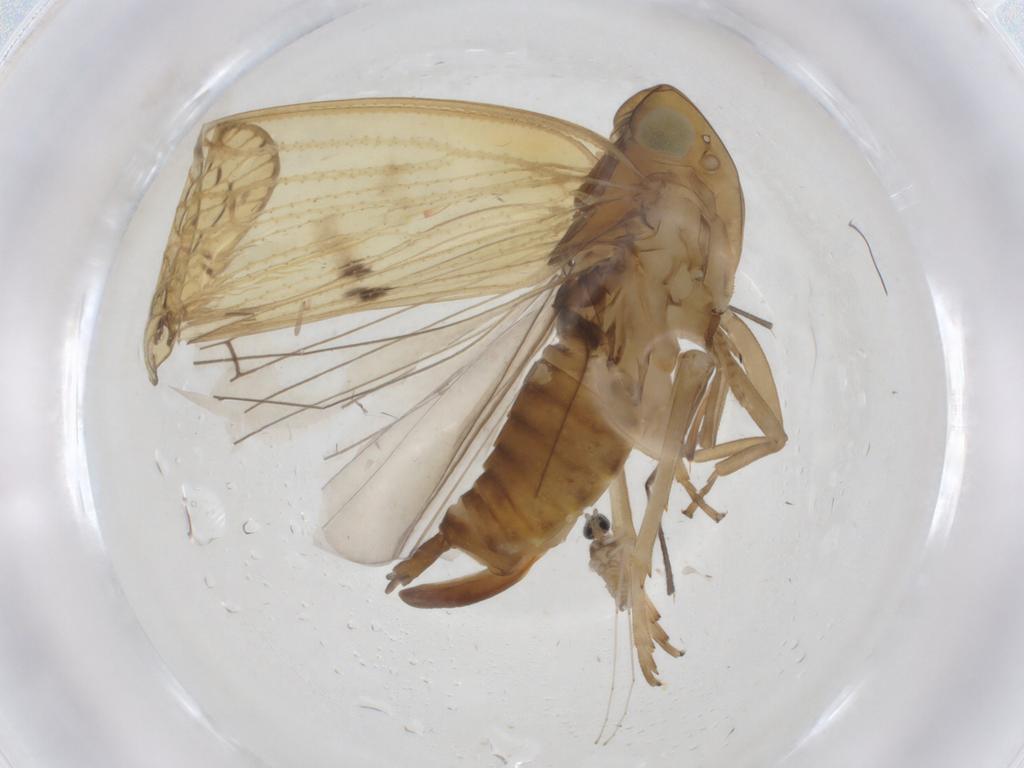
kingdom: Animalia
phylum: Arthropoda
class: Insecta
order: Diptera
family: Cecidomyiidae
